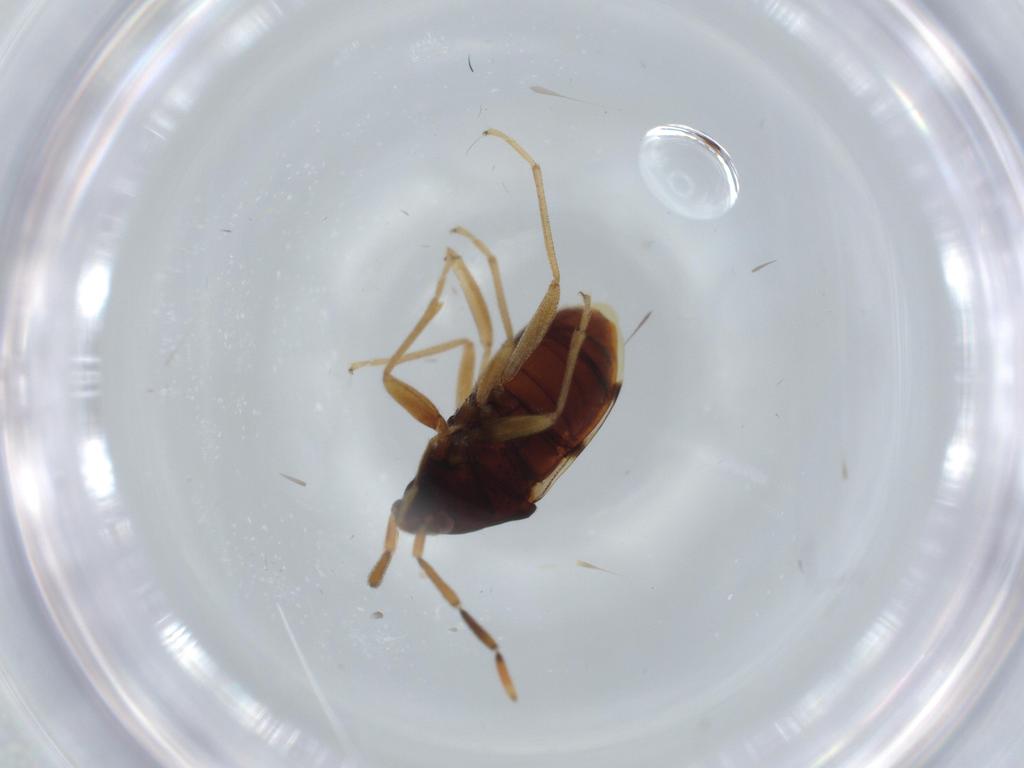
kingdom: Animalia
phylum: Arthropoda
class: Insecta
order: Hemiptera
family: Rhyparochromidae
